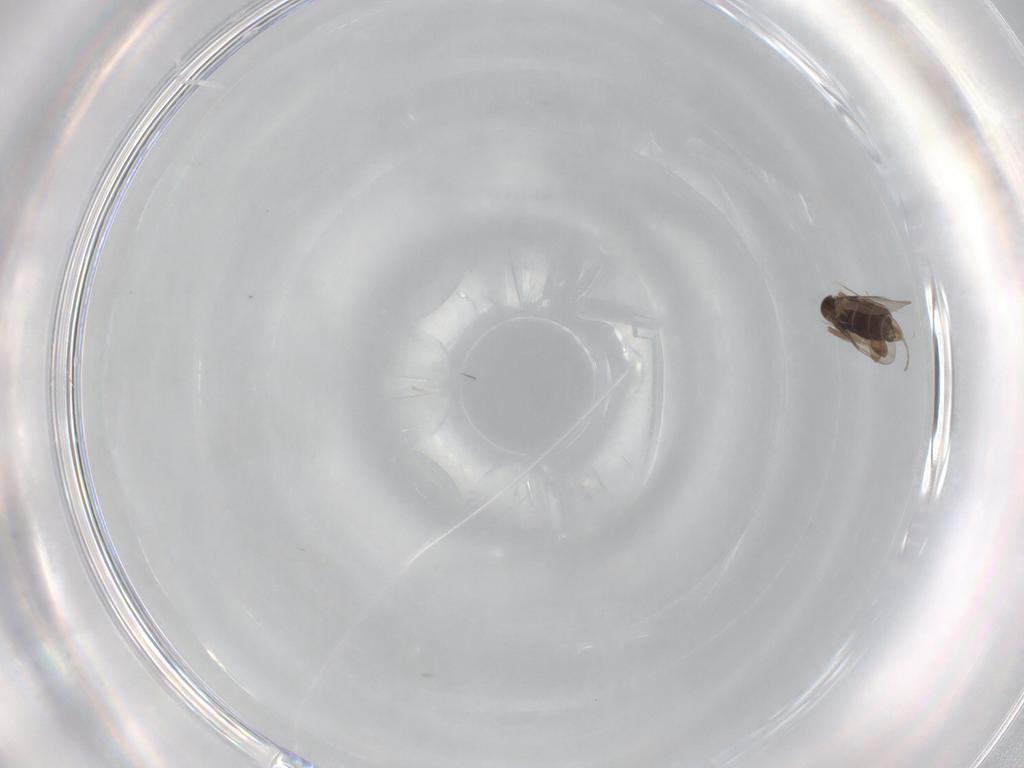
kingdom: Animalia
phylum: Arthropoda
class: Insecta
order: Diptera
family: Phoridae
